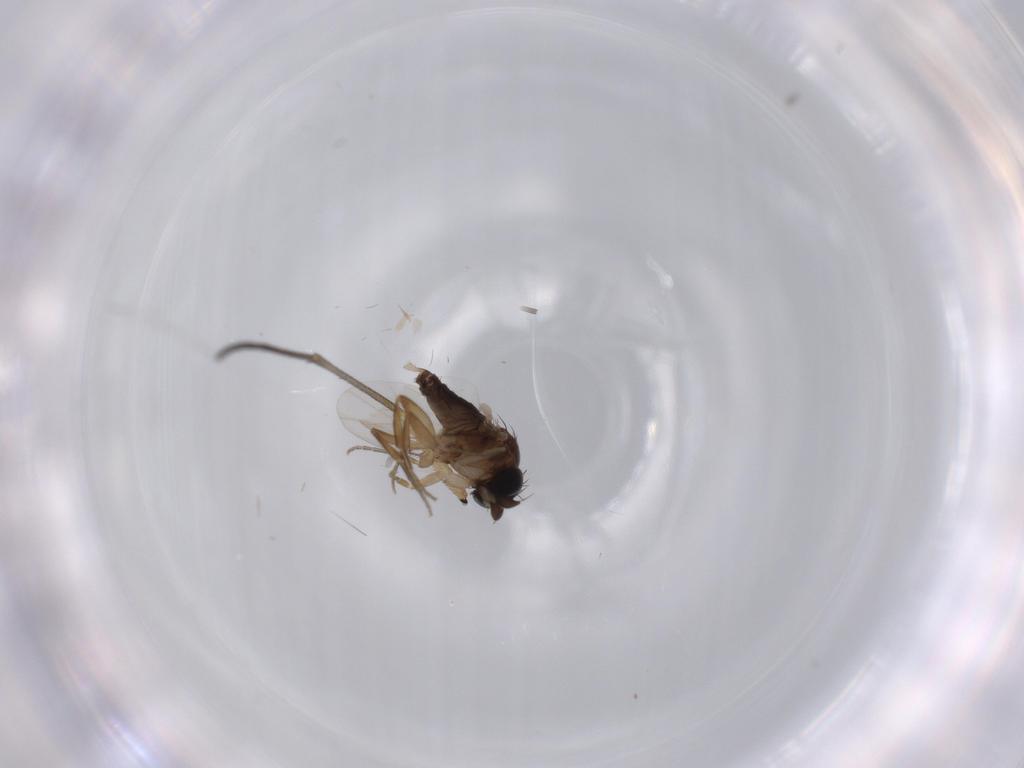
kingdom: Animalia
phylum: Arthropoda
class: Insecta
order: Diptera
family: Phoridae
